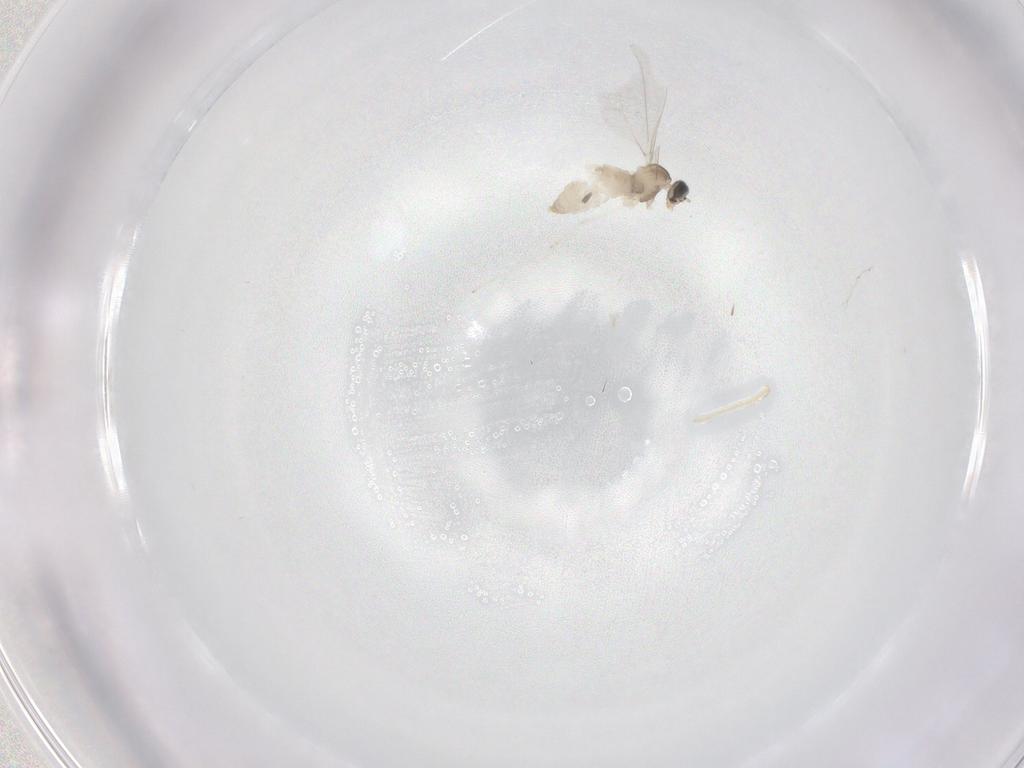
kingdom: Animalia
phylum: Arthropoda
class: Insecta
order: Diptera
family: Cecidomyiidae
